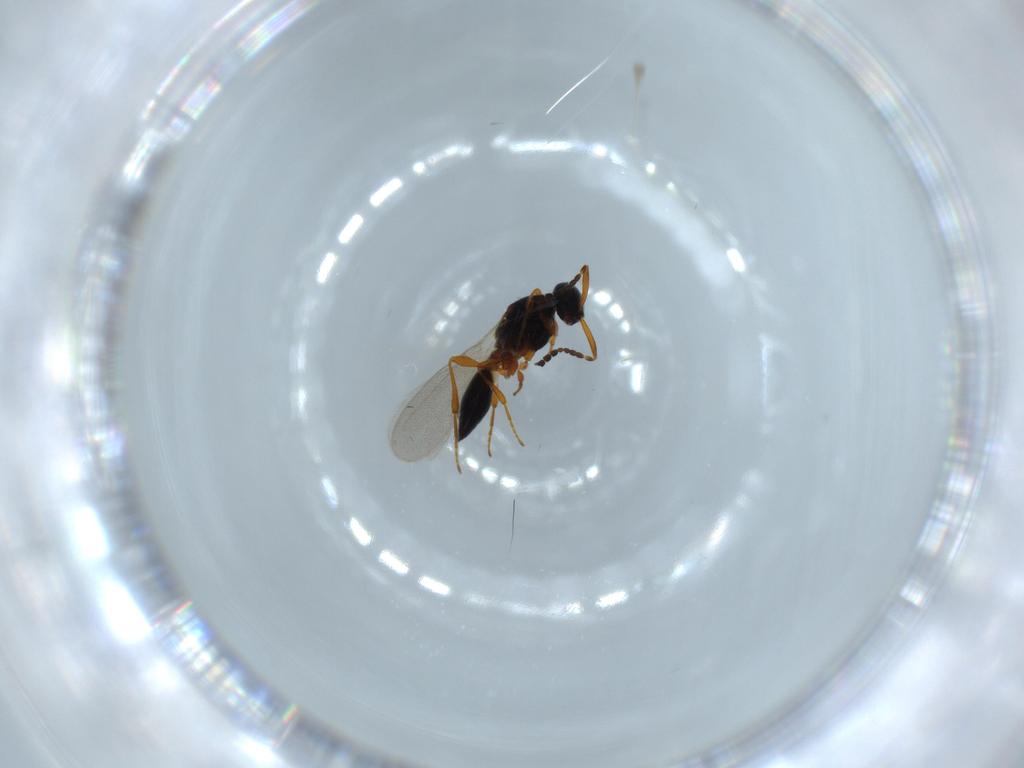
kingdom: Animalia
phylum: Arthropoda
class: Insecta
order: Hymenoptera
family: Platygastridae
